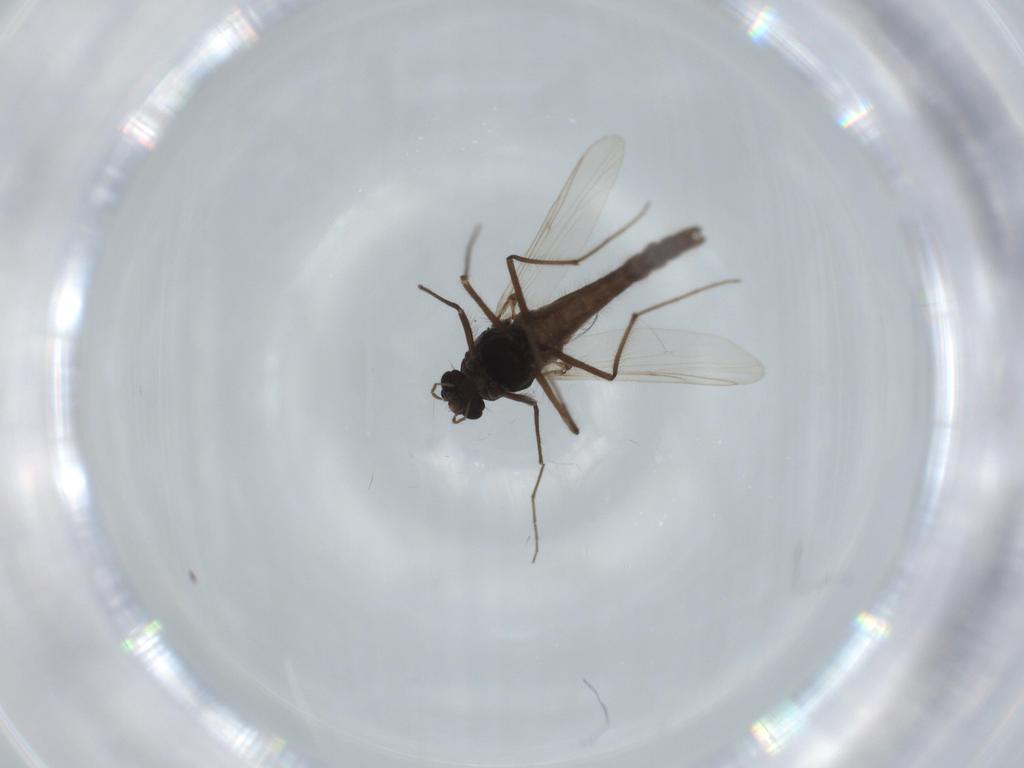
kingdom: Animalia
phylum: Arthropoda
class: Insecta
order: Diptera
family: Dolichopodidae
